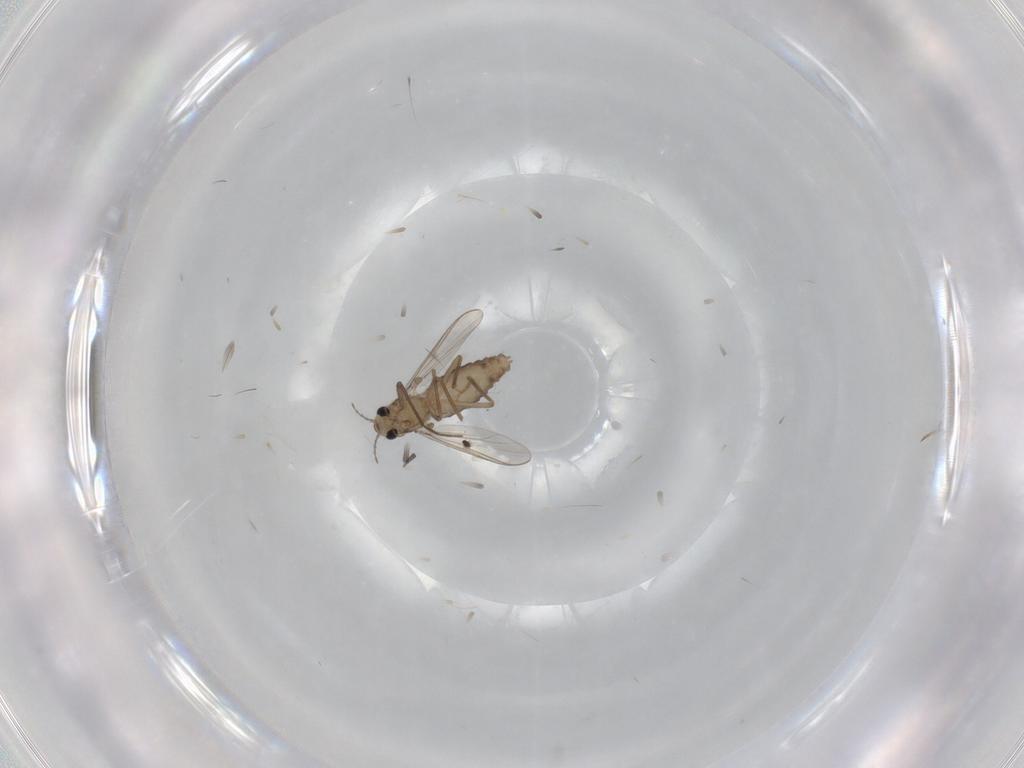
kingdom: Animalia
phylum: Arthropoda
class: Insecta
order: Diptera
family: Chironomidae
